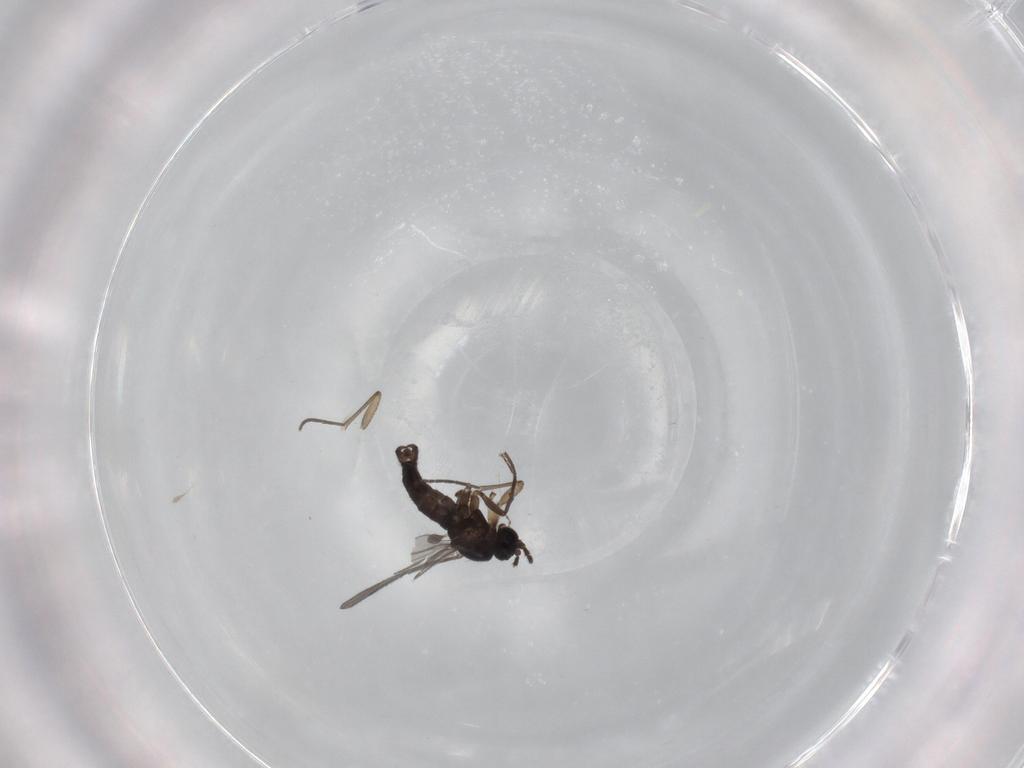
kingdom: Animalia
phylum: Arthropoda
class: Insecta
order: Diptera
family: Sciaridae
